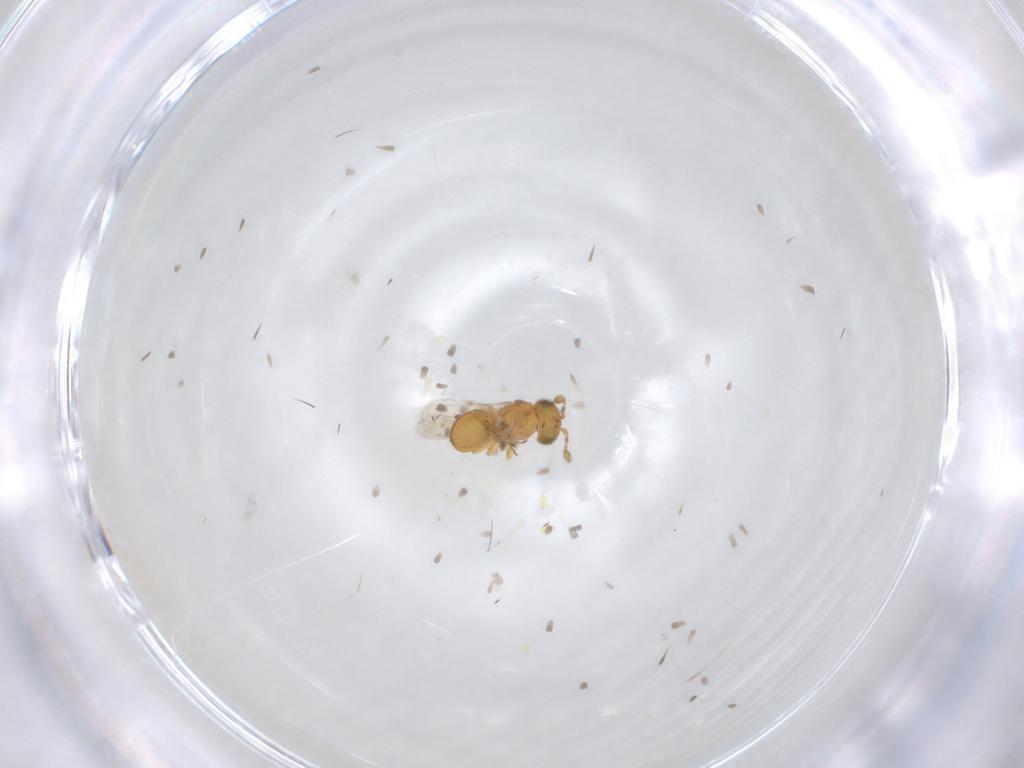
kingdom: Animalia
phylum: Arthropoda
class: Insecta
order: Hymenoptera
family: Scelionidae
